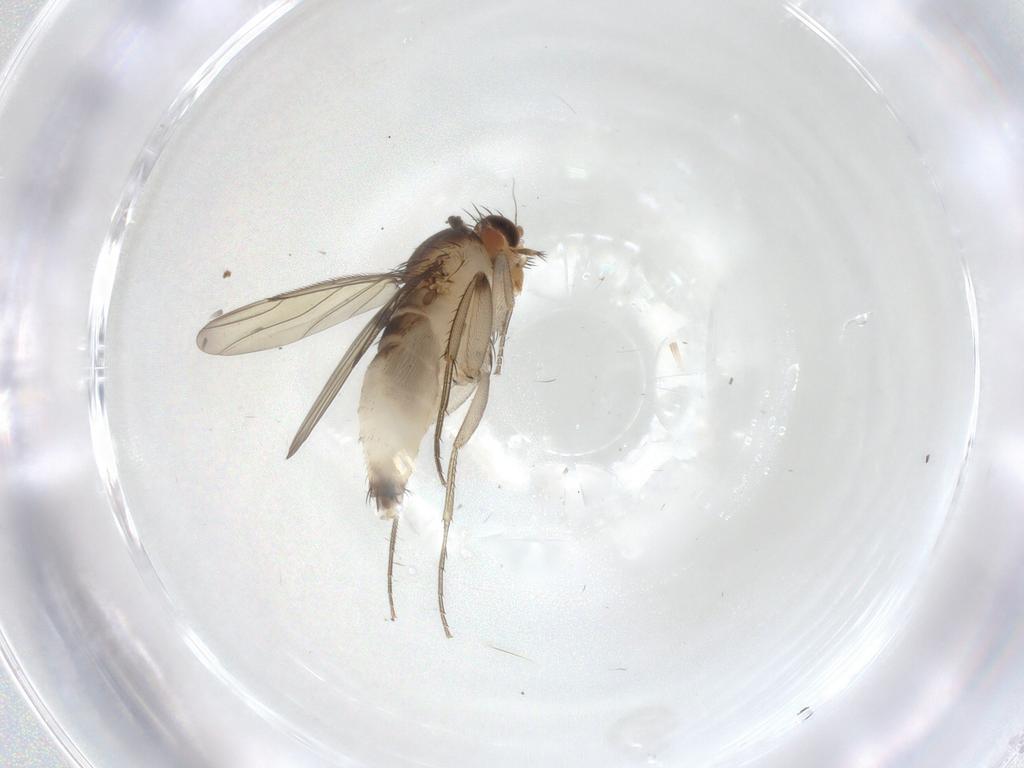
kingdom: Animalia
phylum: Arthropoda
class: Insecta
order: Diptera
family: Phoridae
